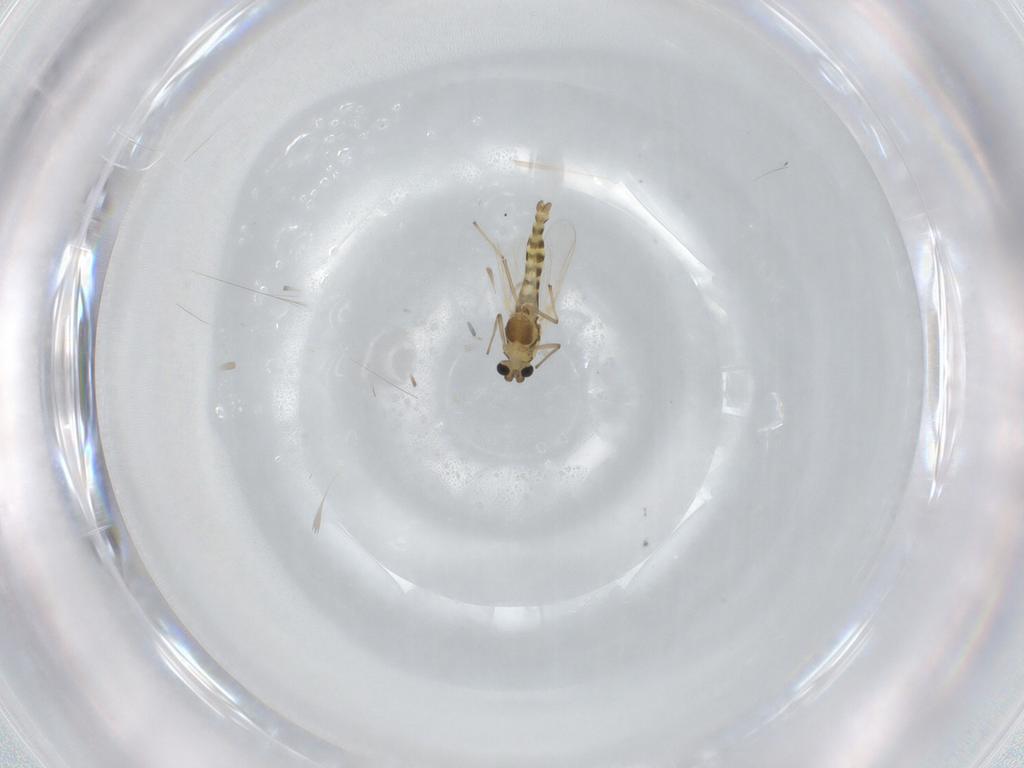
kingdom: Animalia
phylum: Arthropoda
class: Insecta
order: Diptera
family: Chironomidae
